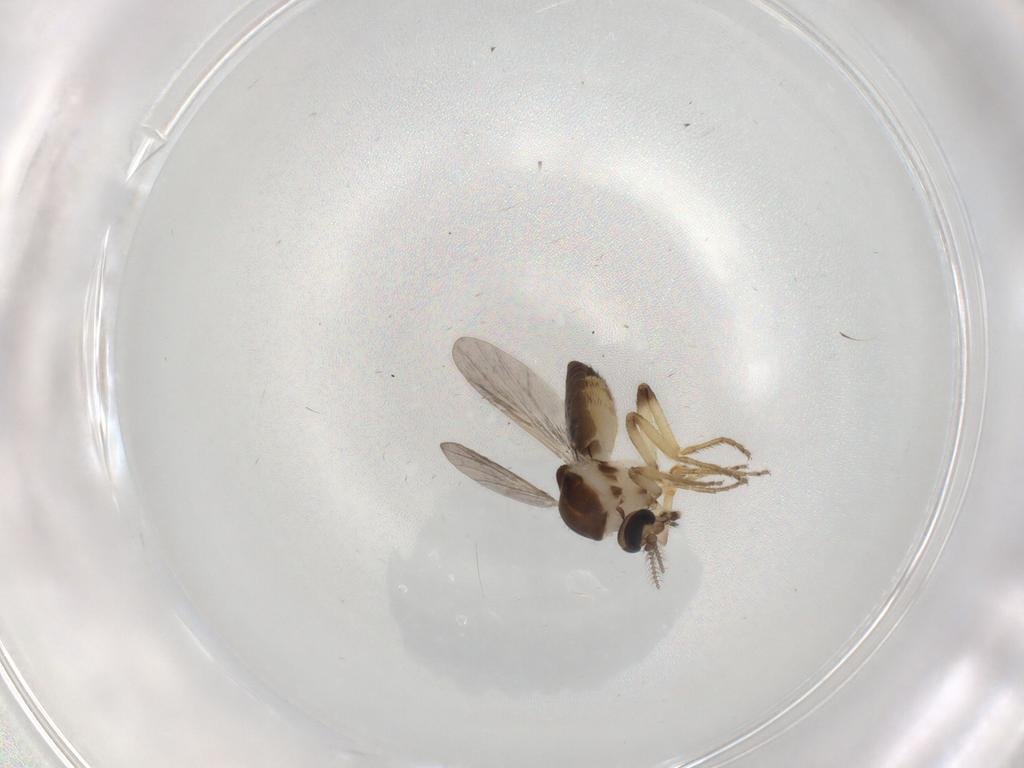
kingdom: Animalia
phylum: Arthropoda
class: Insecta
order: Diptera
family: Ceratopogonidae
